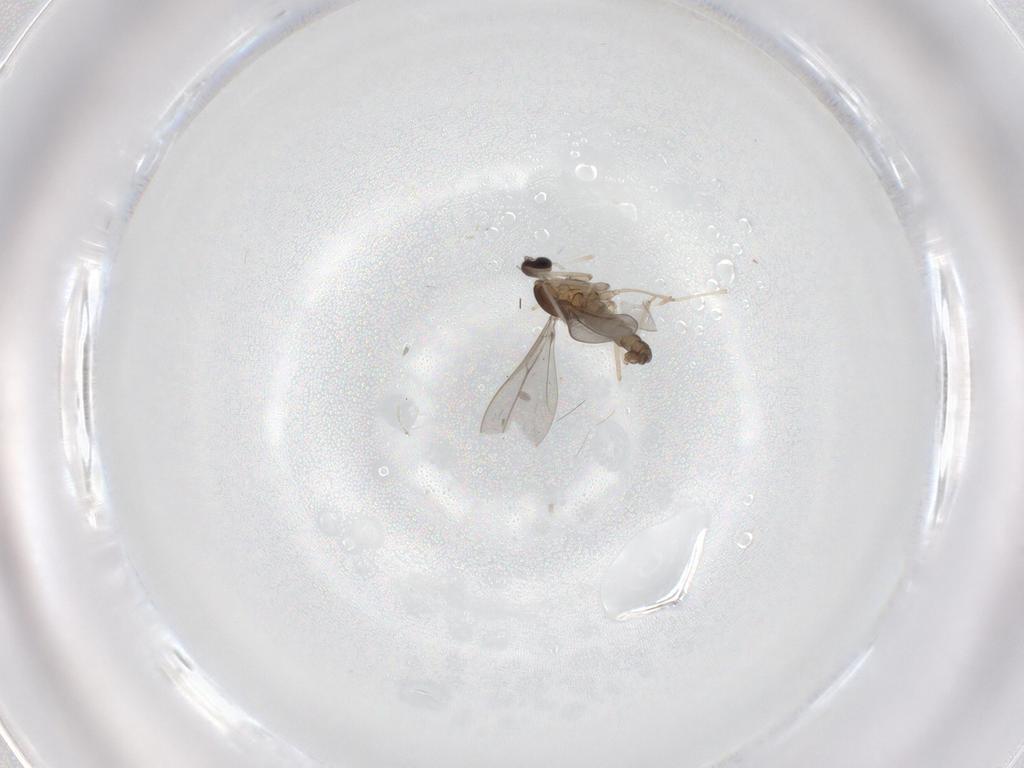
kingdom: Animalia
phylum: Arthropoda
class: Insecta
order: Diptera
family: Cecidomyiidae
